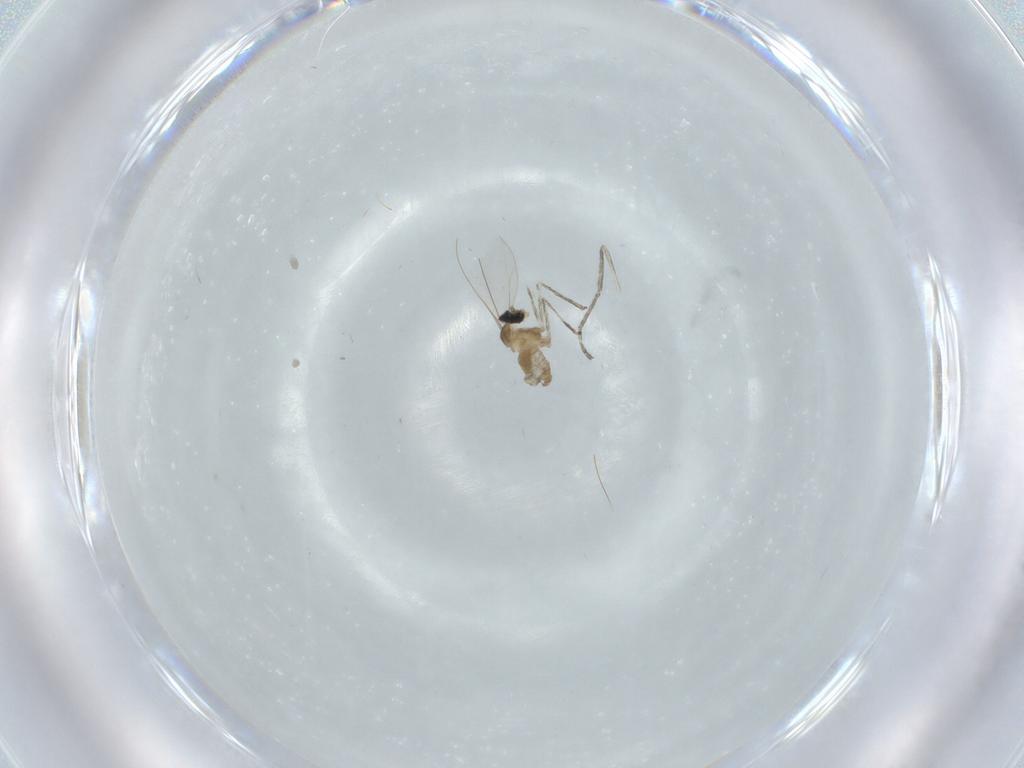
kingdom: Animalia
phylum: Arthropoda
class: Insecta
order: Diptera
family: Cecidomyiidae
